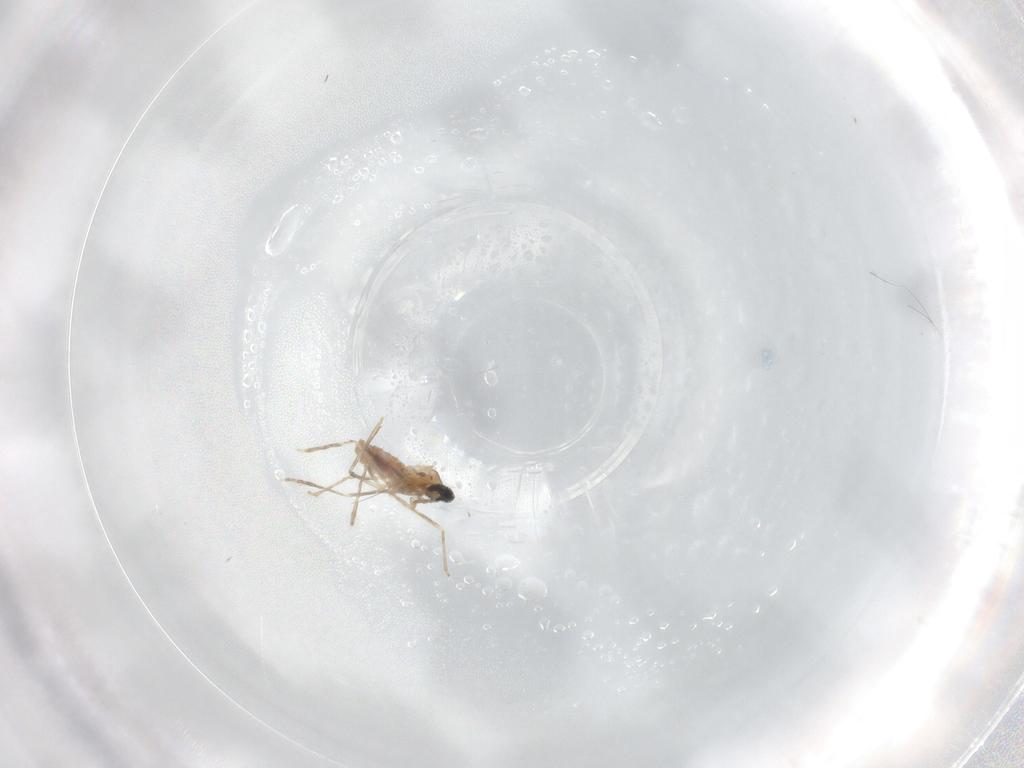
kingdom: Animalia
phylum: Arthropoda
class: Insecta
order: Diptera
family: Chironomidae
